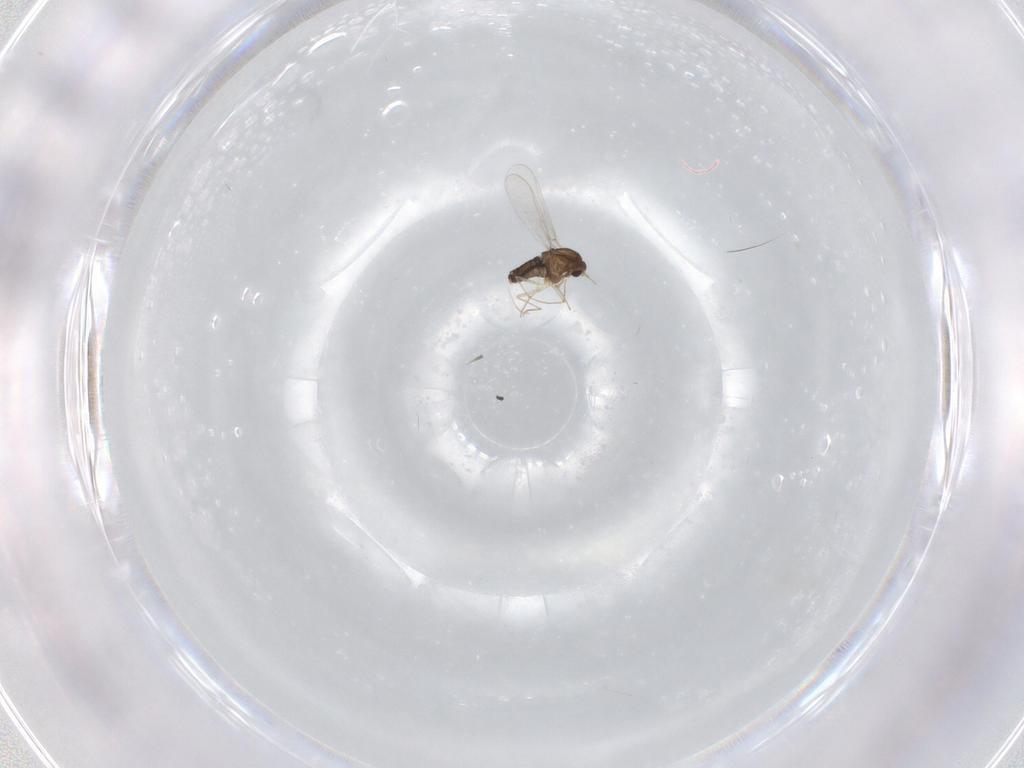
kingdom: Animalia
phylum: Arthropoda
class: Insecta
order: Diptera
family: Chironomidae
